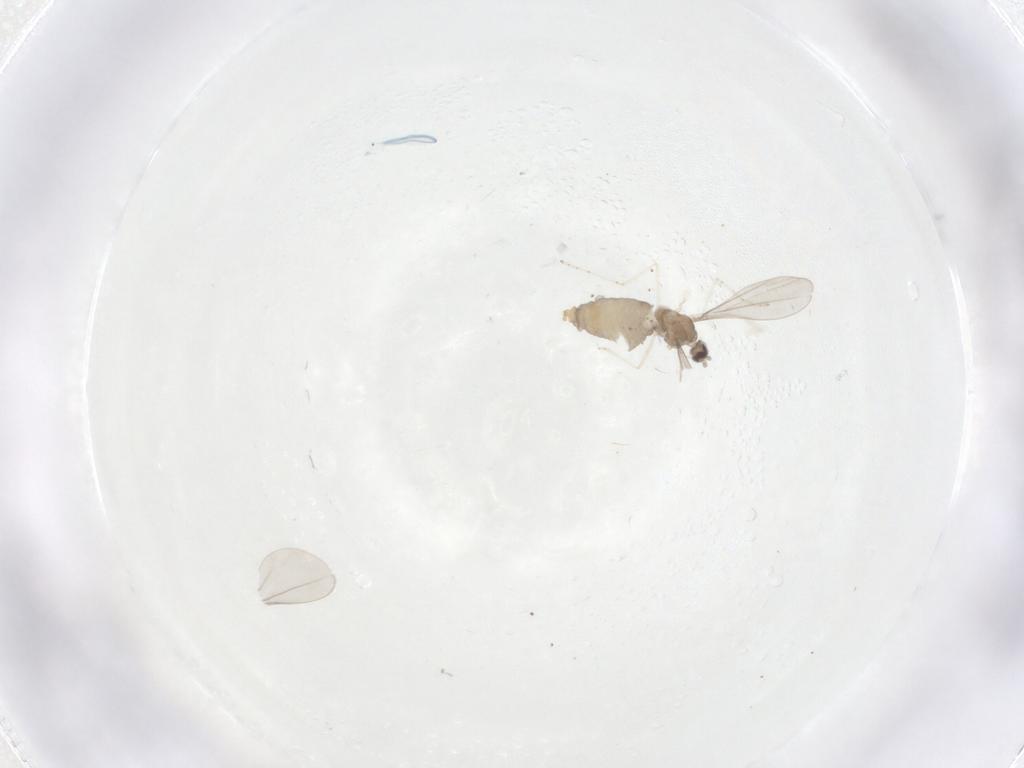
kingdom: Animalia
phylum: Arthropoda
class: Insecta
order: Diptera
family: Cecidomyiidae
